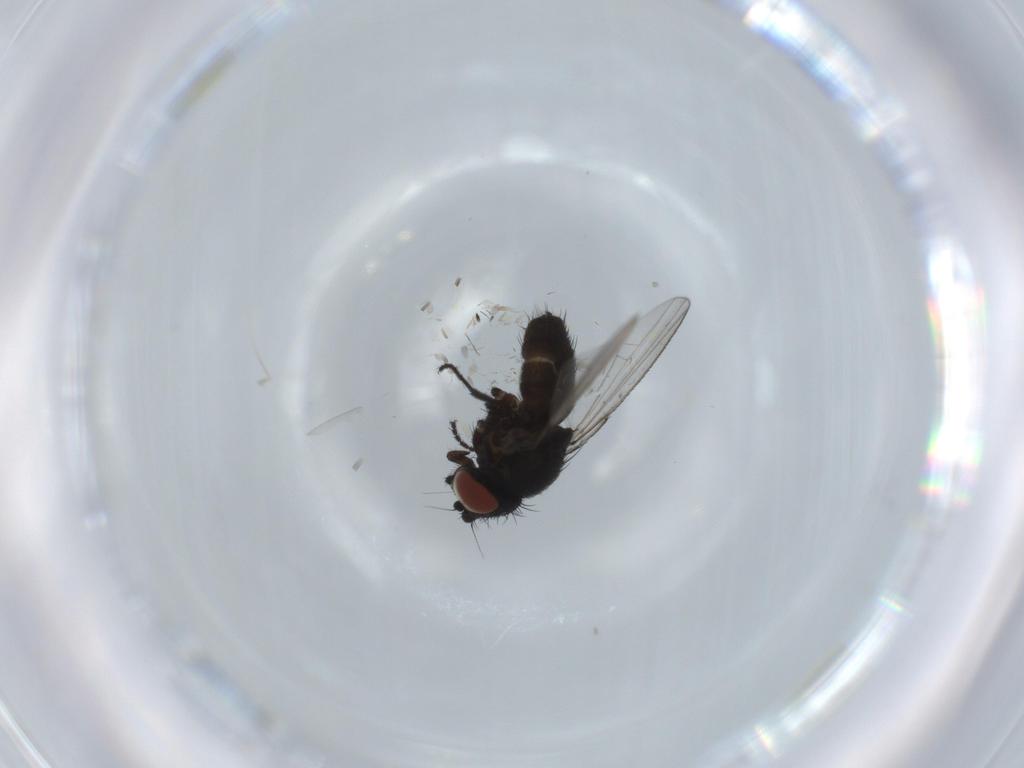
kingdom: Animalia
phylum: Arthropoda
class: Insecta
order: Diptera
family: Milichiidae
